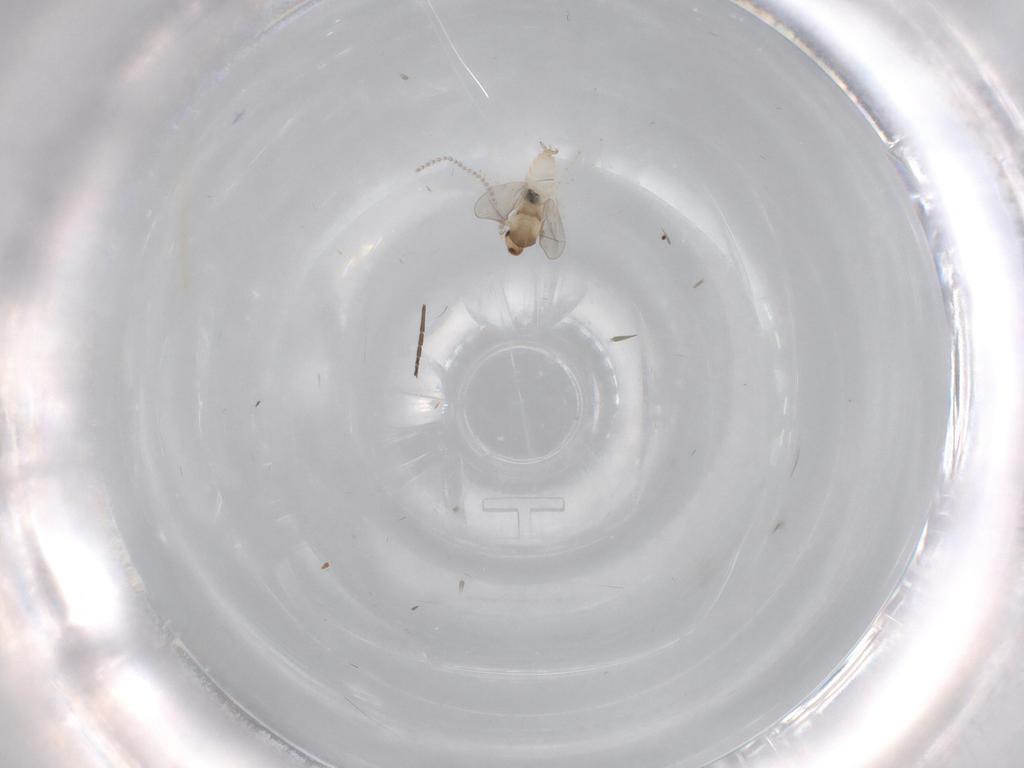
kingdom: Animalia
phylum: Arthropoda
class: Insecta
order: Diptera
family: Cecidomyiidae
